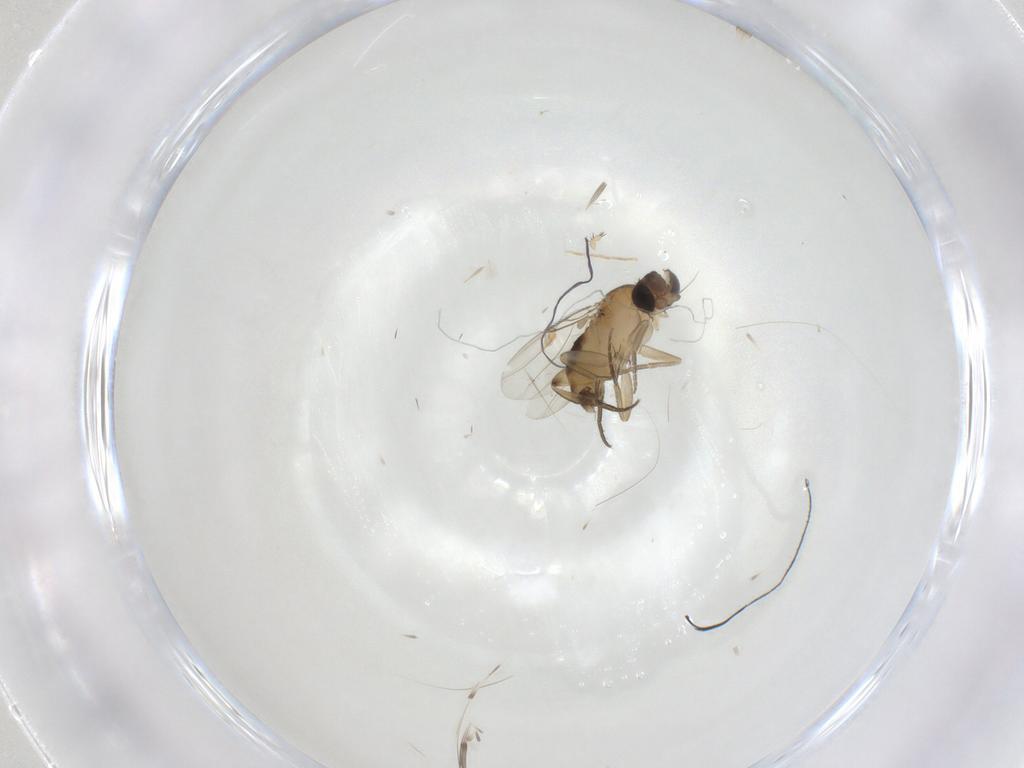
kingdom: Animalia
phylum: Arthropoda
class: Insecta
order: Diptera
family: Phoridae
